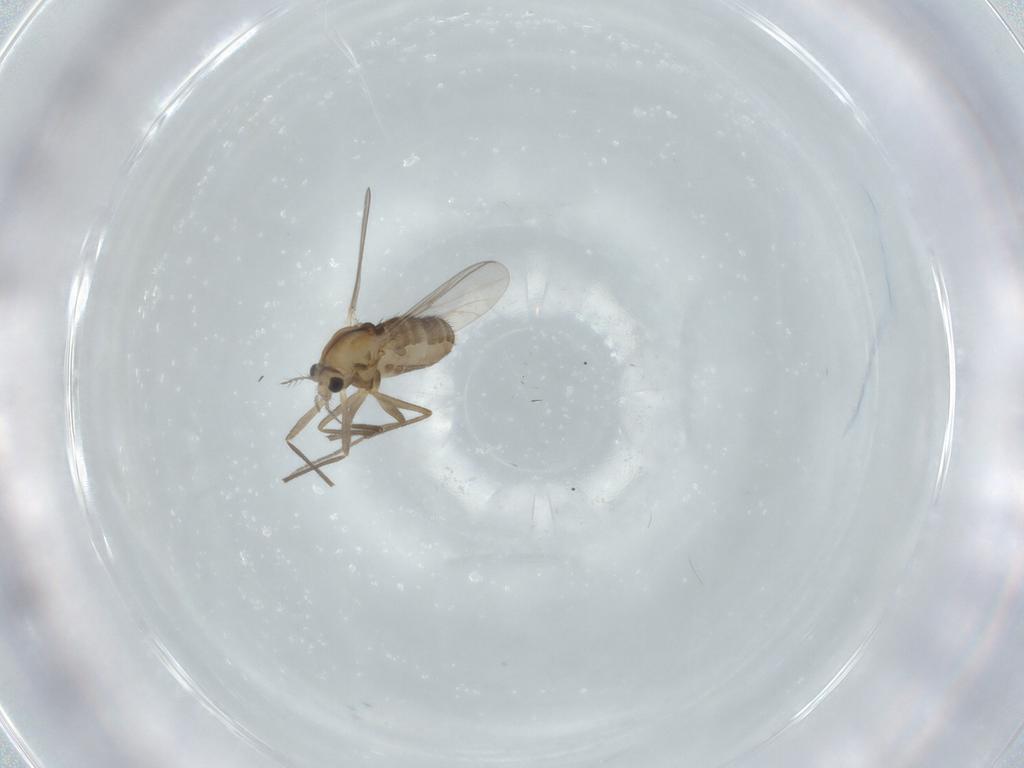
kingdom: Animalia
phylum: Arthropoda
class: Insecta
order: Diptera
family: Chironomidae
